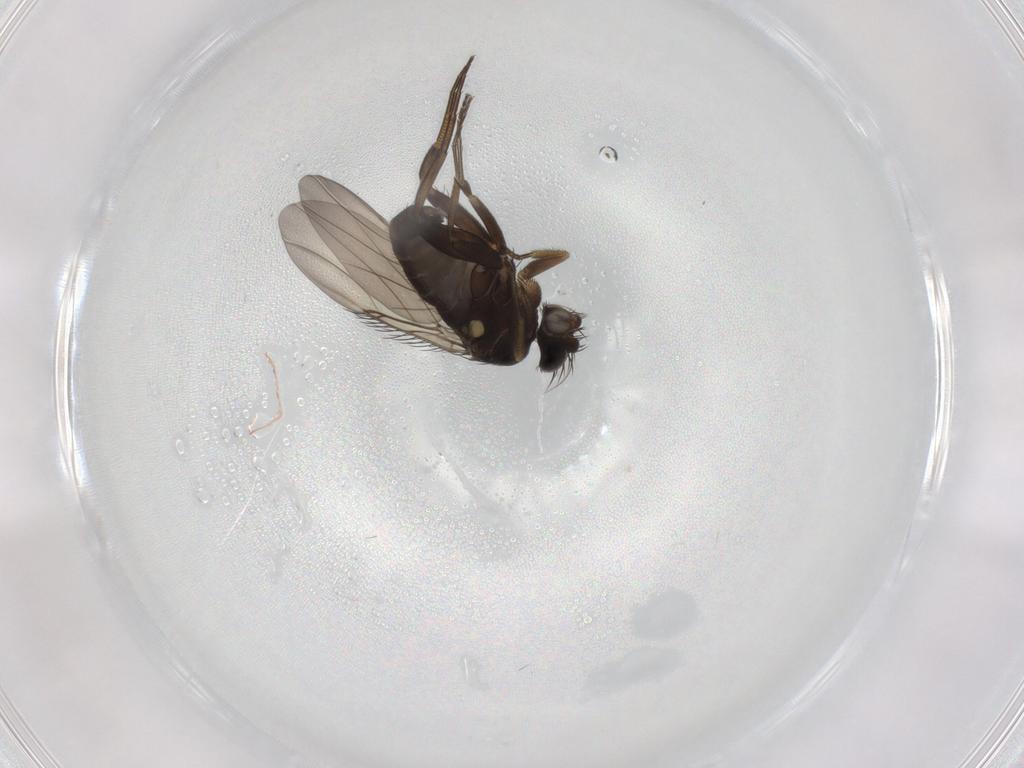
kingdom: Animalia
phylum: Arthropoda
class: Insecta
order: Diptera
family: Phoridae
